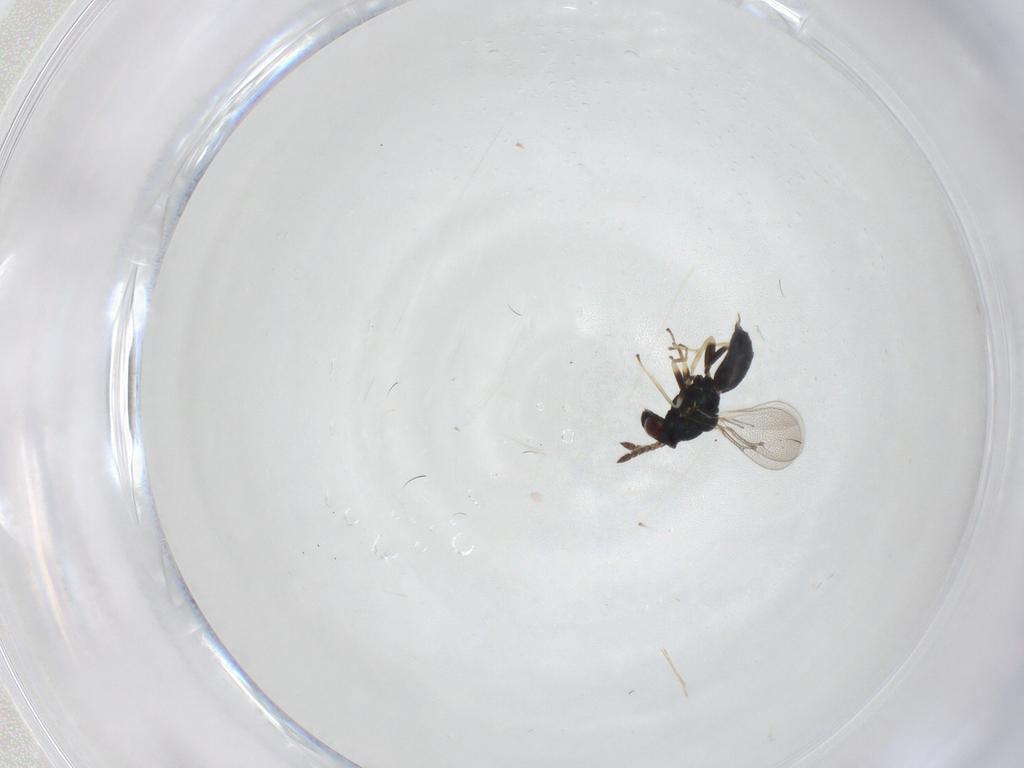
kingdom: Animalia
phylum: Arthropoda
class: Insecta
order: Hymenoptera
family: Eulophidae
